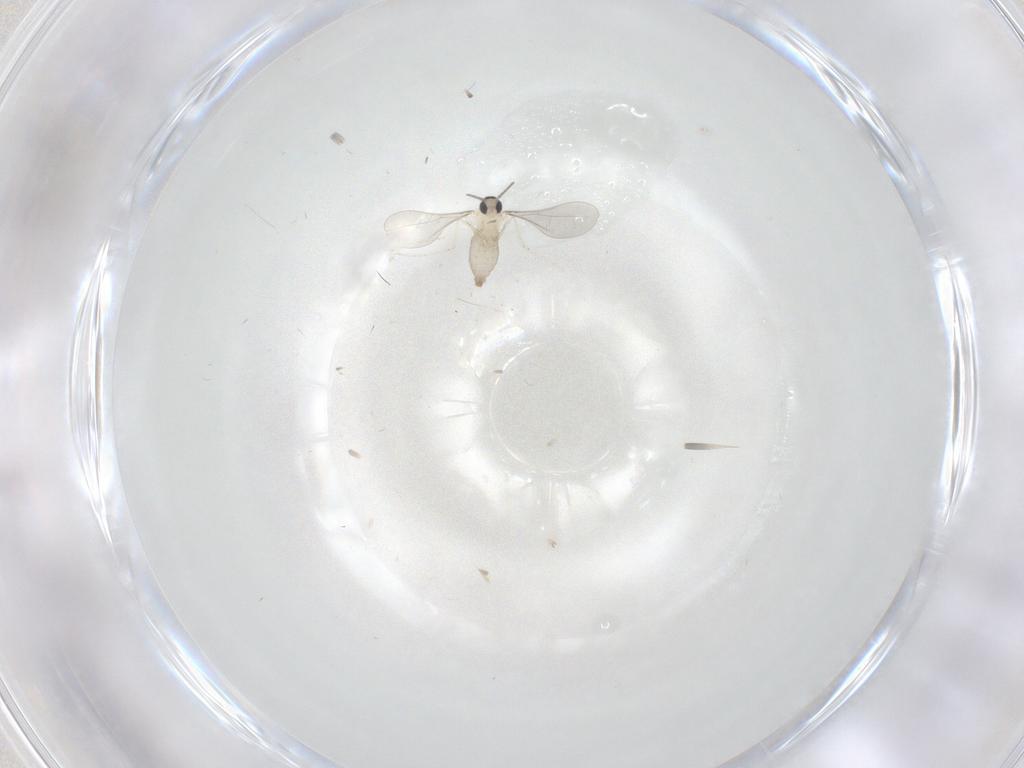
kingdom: Animalia
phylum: Arthropoda
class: Insecta
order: Diptera
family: Cecidomyiidae
